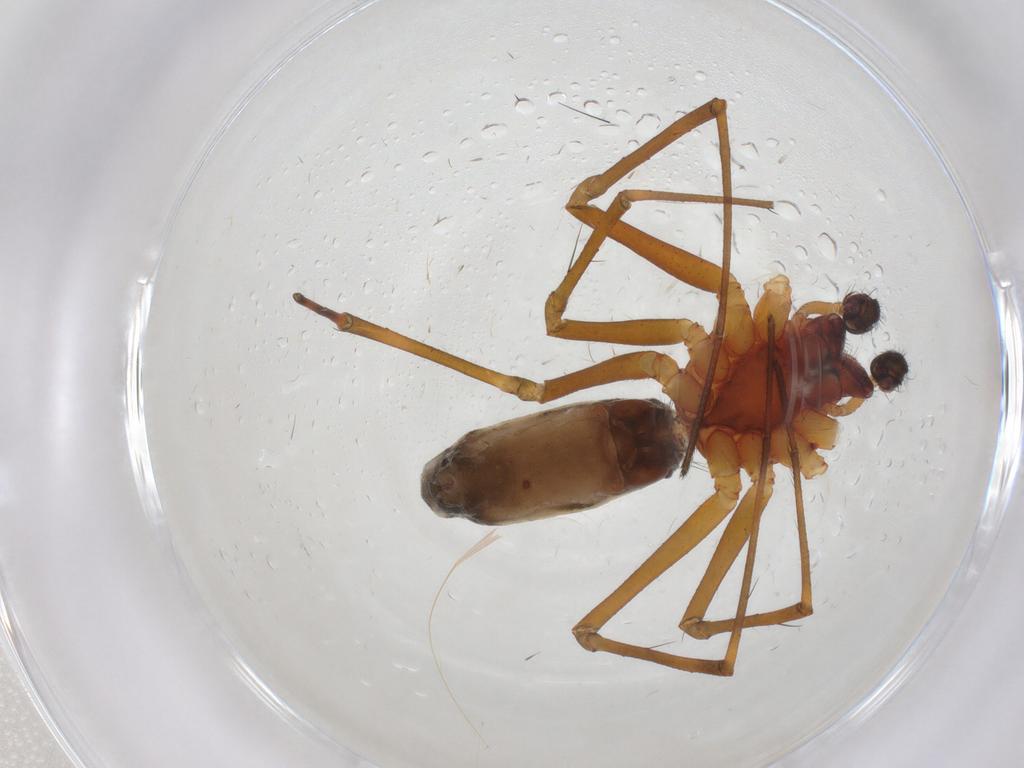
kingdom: Animalia
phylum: Arthropoda
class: Arachnida
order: Araneae
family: Linyphiidae
